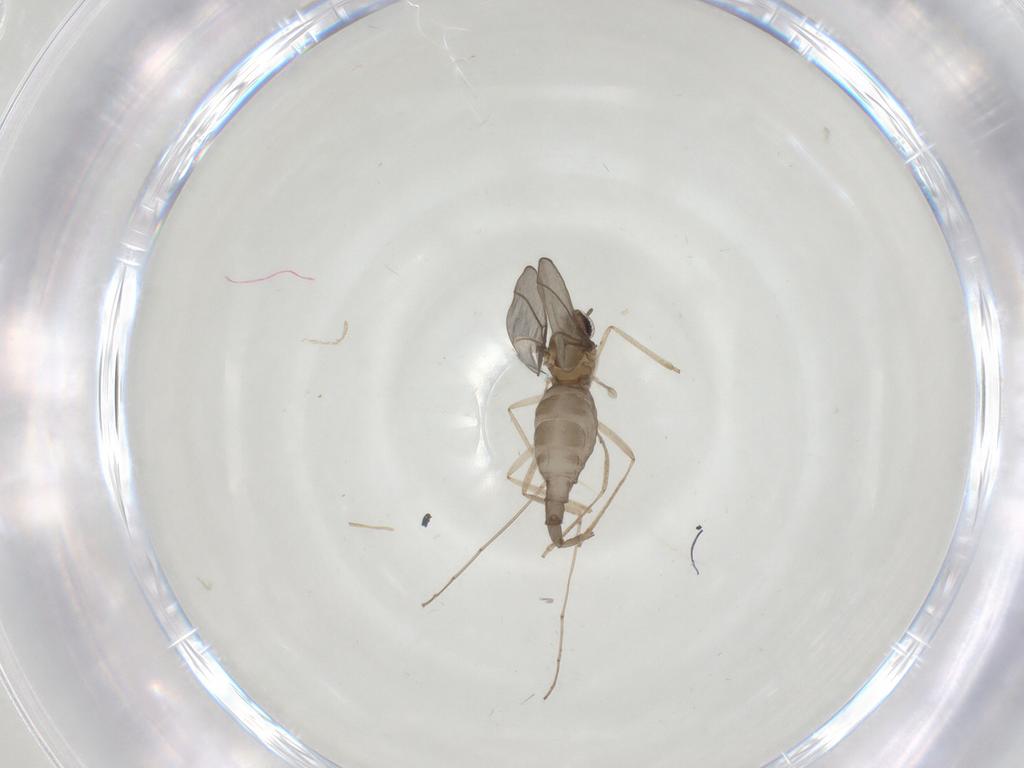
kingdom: Animalia
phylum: Arthropoda
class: Insecta
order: Diptera
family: Cecidomyiidae
